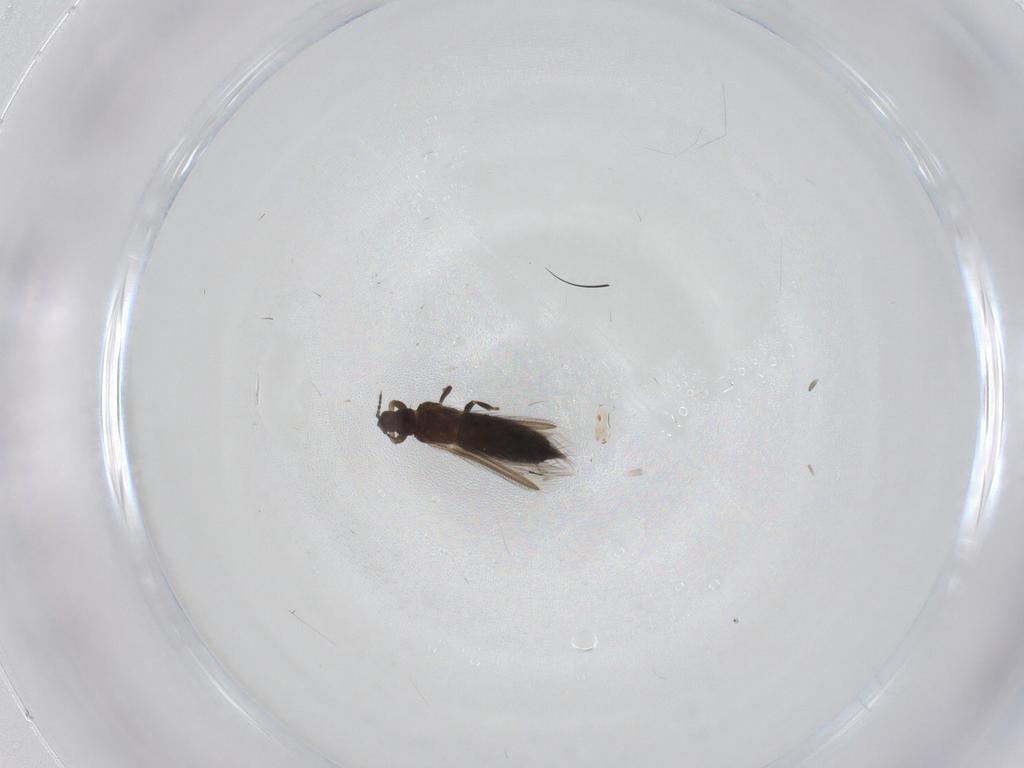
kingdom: Animalia
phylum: Arthropoda
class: Insecta
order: Thysanoptera
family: Thripidae
